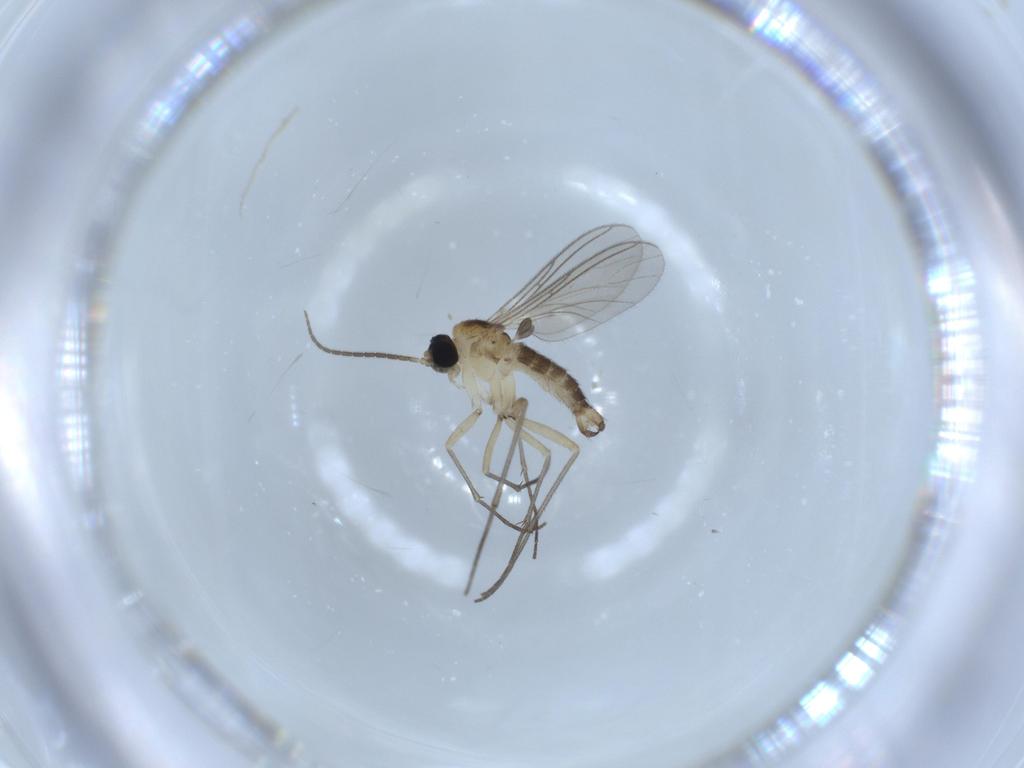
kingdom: Animalia
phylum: Arthropoda
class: Insecta
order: Diptera
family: Sciaridae
